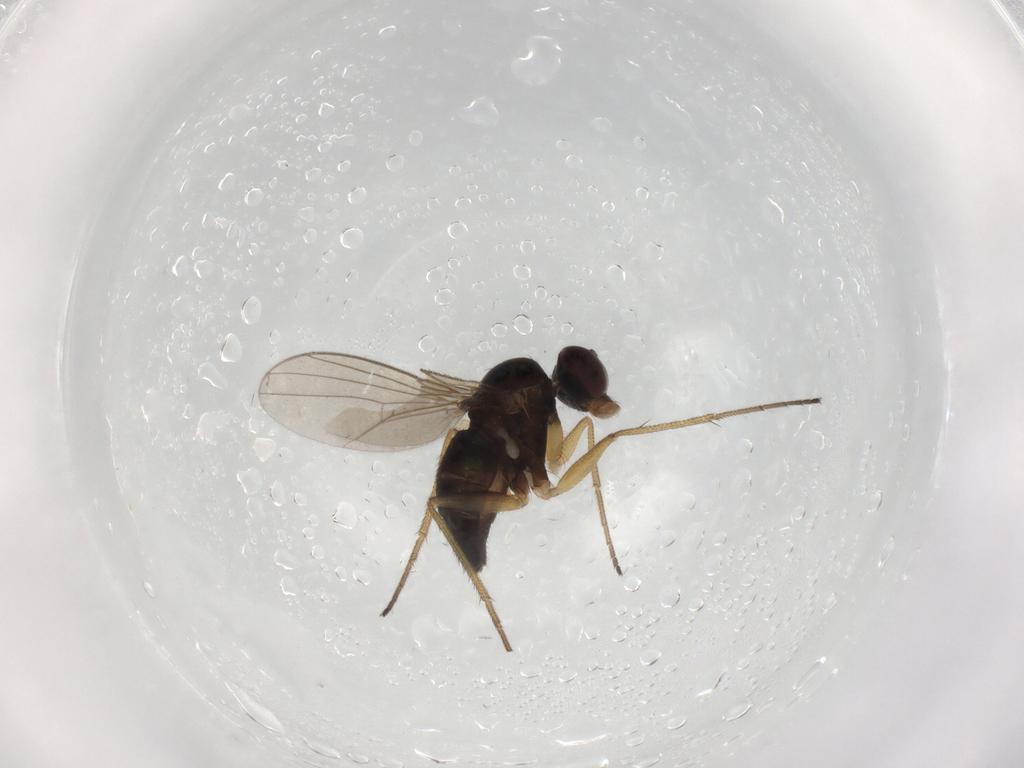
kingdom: Animalia
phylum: Arthropoda
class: Insecta
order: Diptera
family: Dolichopodidae
